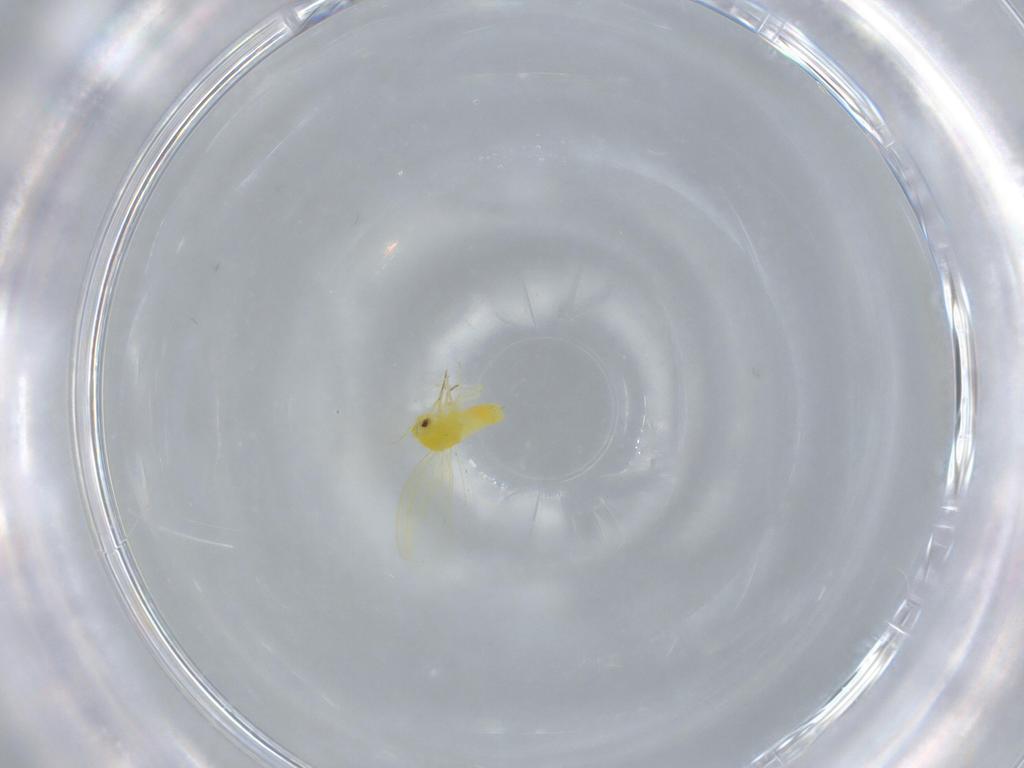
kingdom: Animalia
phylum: Arthropoda
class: Insecta
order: Hemiptera
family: Aleyrodidae
